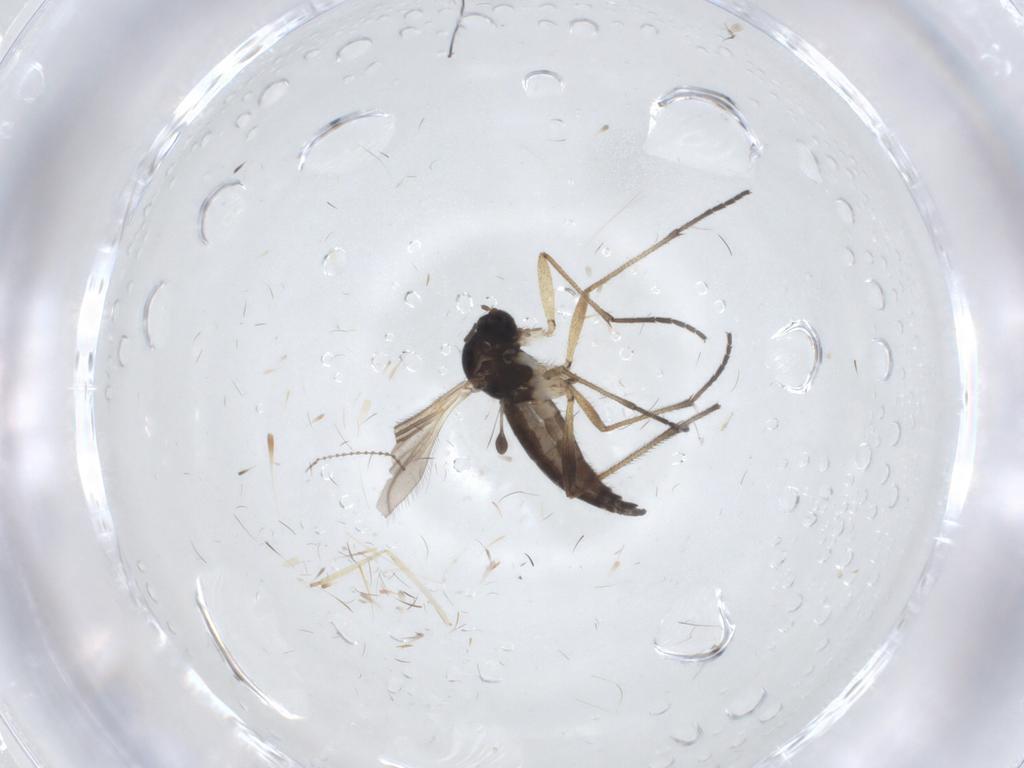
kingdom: Animalia
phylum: Arthropoda
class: Insecta
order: Diptera
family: Sciaridae
